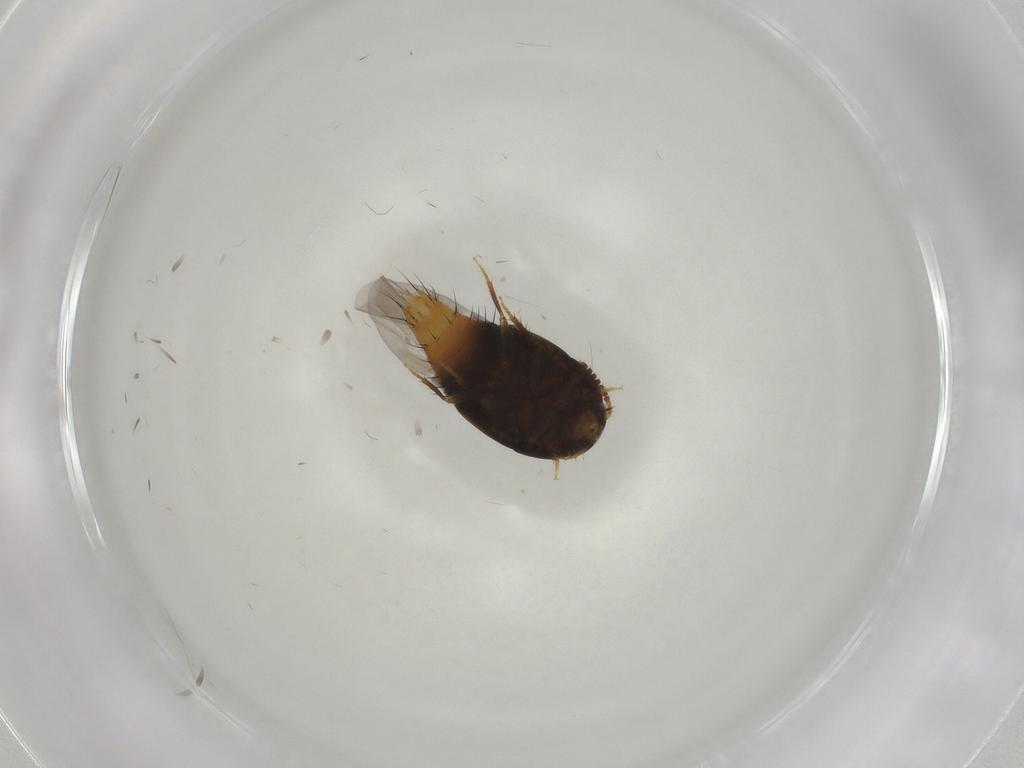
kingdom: Animalia
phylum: Arthropoda
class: Insecta
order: Coleoptera
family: Staphylinidae
